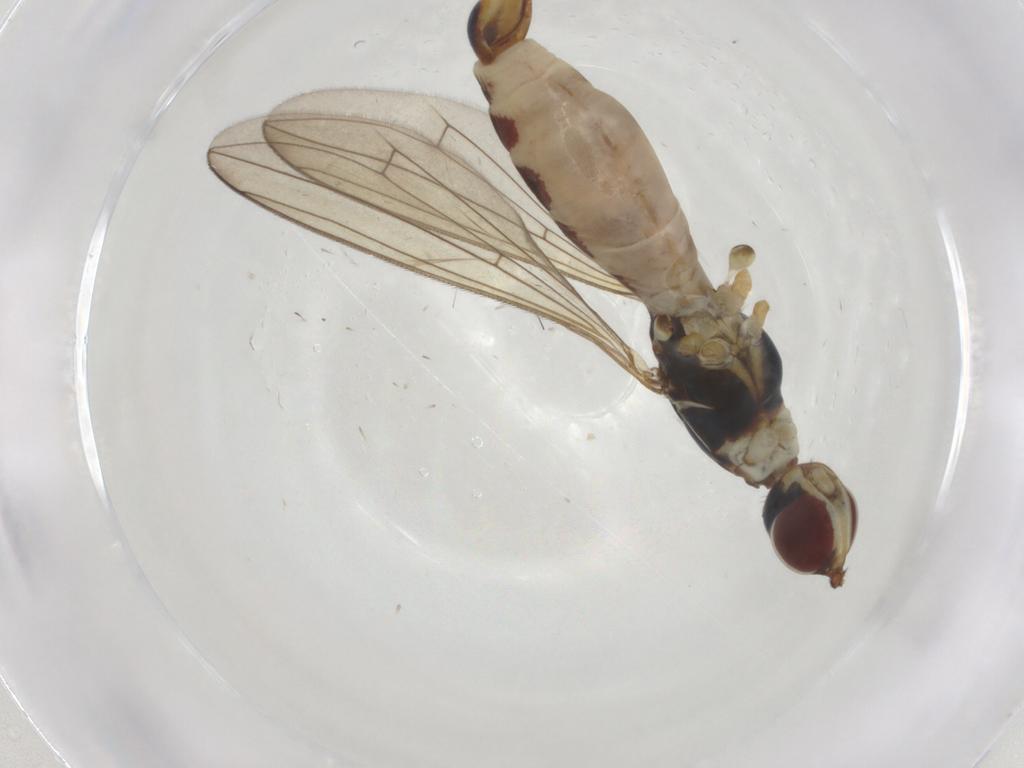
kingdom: Animalia
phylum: Arthropoda
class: Insecta
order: Diptera
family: Micropezidae
